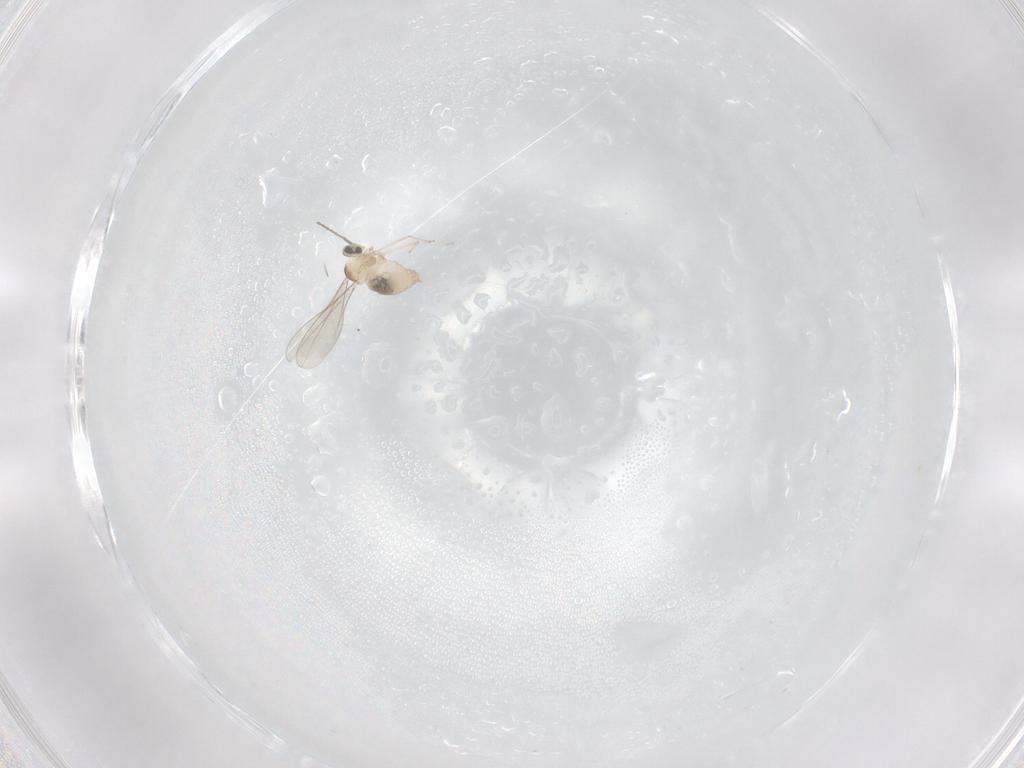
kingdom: Animalia
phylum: Arthropoda
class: Insecta
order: Diptera
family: Cecidomyiidae
